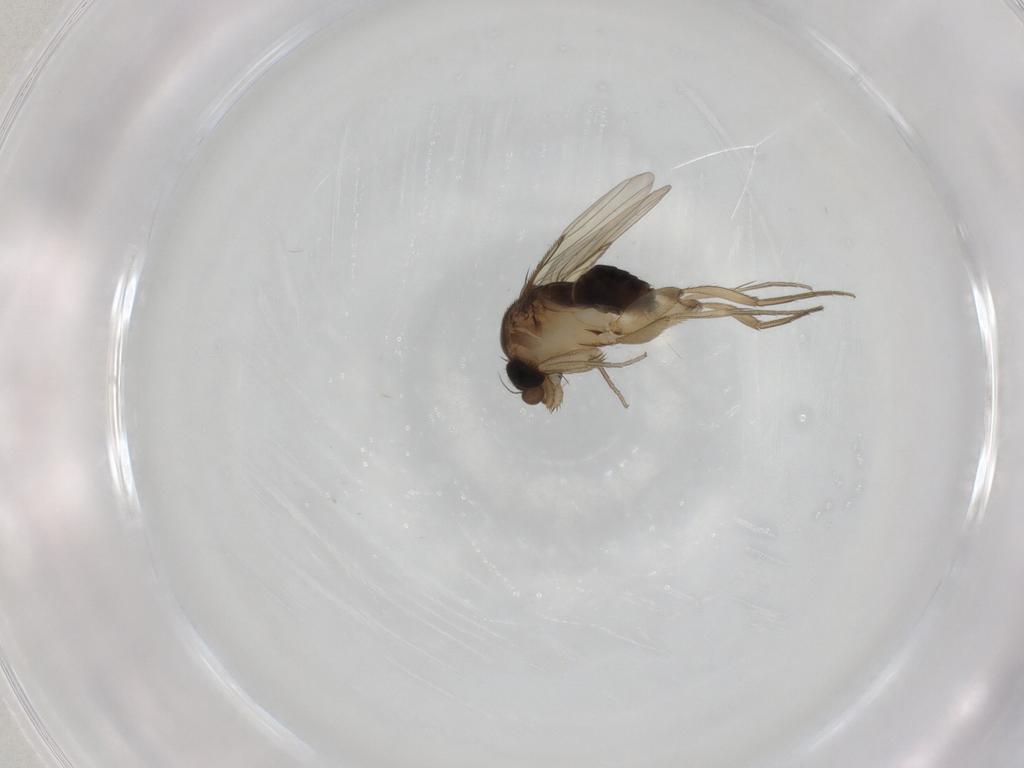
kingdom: Animalia
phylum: Arthropoda
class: Insecta
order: Diptera
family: Phoridae
